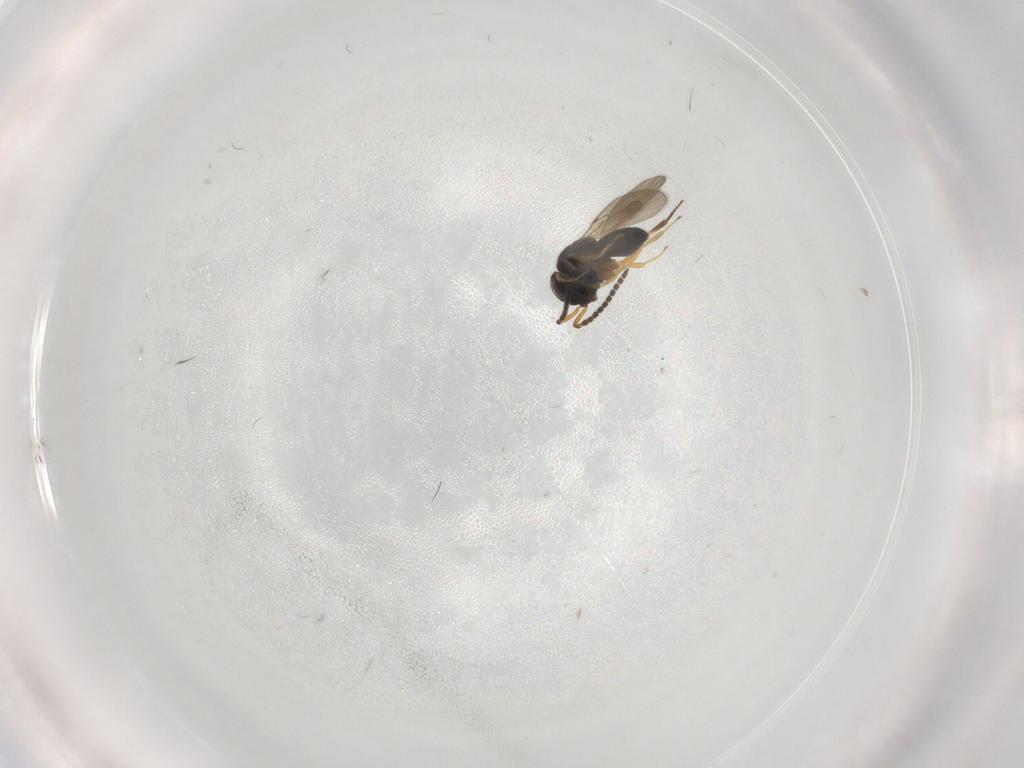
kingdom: Animalia
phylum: Arthropoda
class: Insecta
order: Hymenoptera
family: Scelionidae
